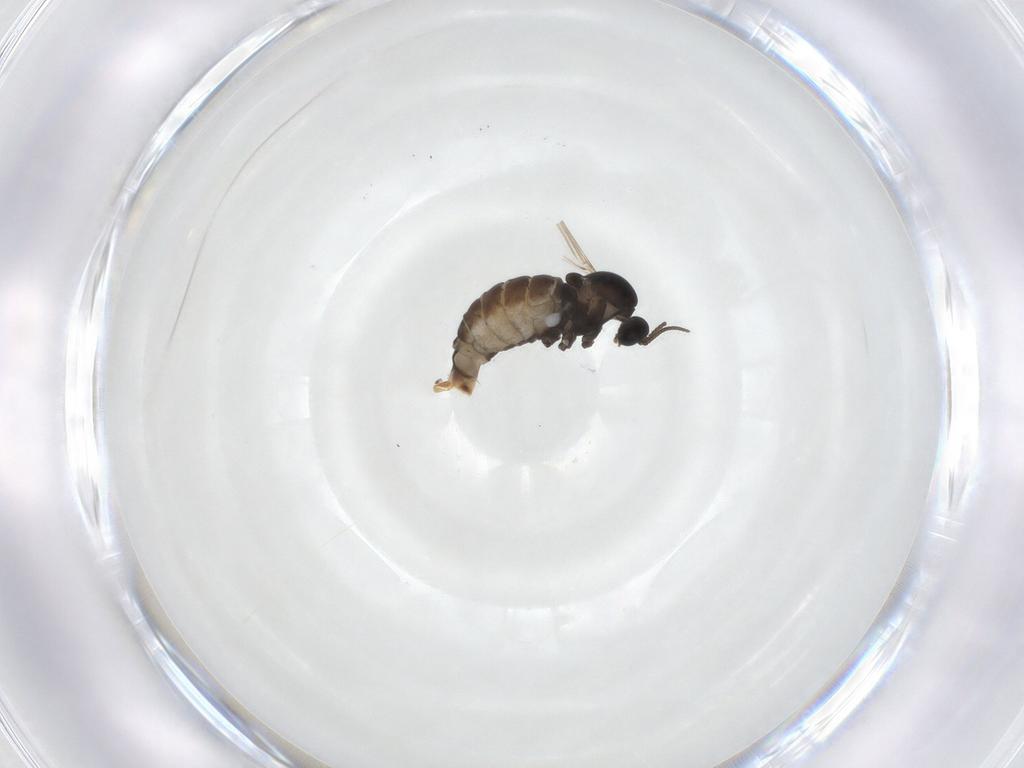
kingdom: Animalia
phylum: Arthropoda
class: Insecta
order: Diptera
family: Cecidomyiidae
